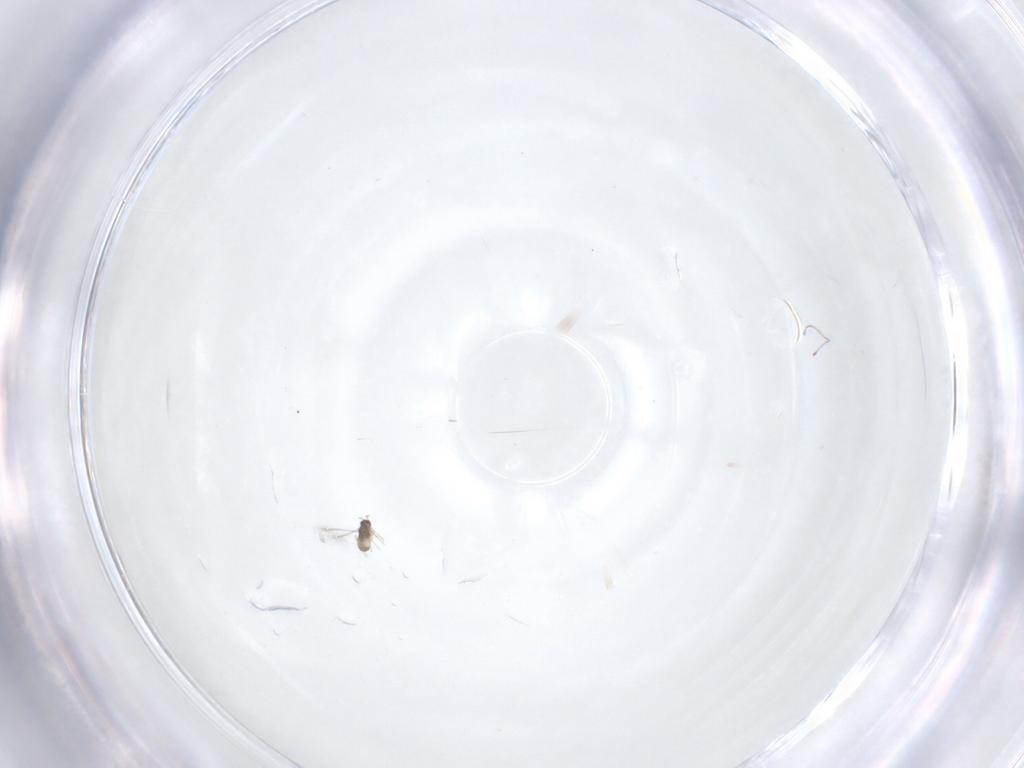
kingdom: Animalia
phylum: Arthropoda
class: Insecta
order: Hymenoptera
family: Mymaridae
